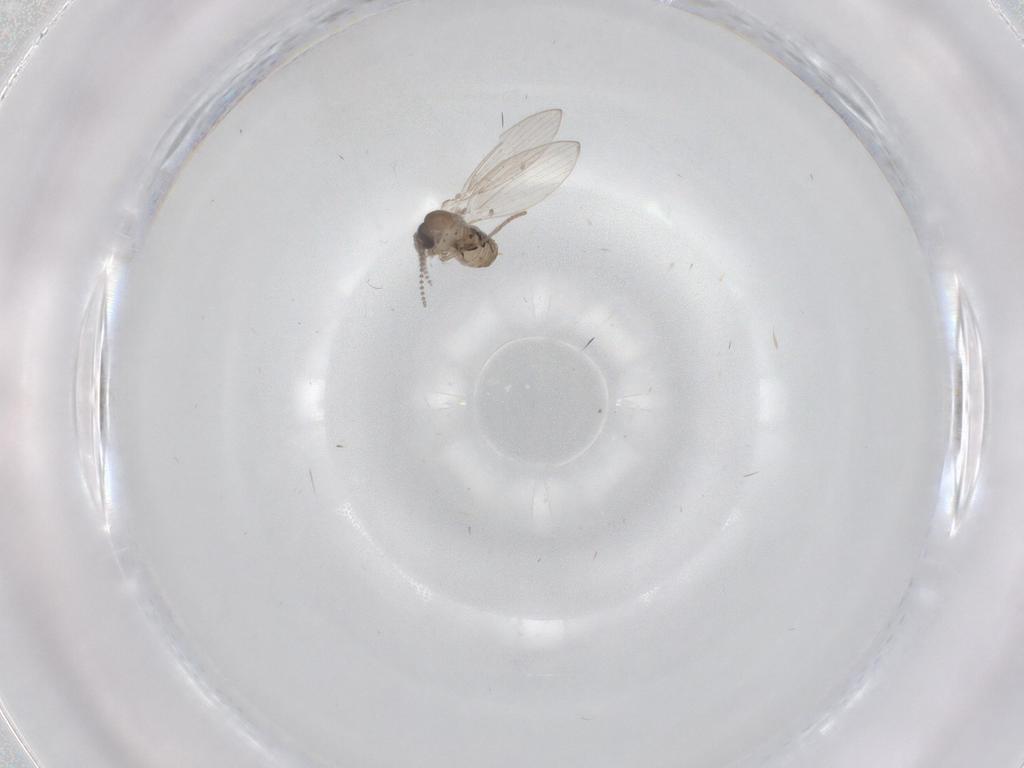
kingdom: Animalia
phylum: Arthropoda
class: Insecta
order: Diptera
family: Psychodidae
